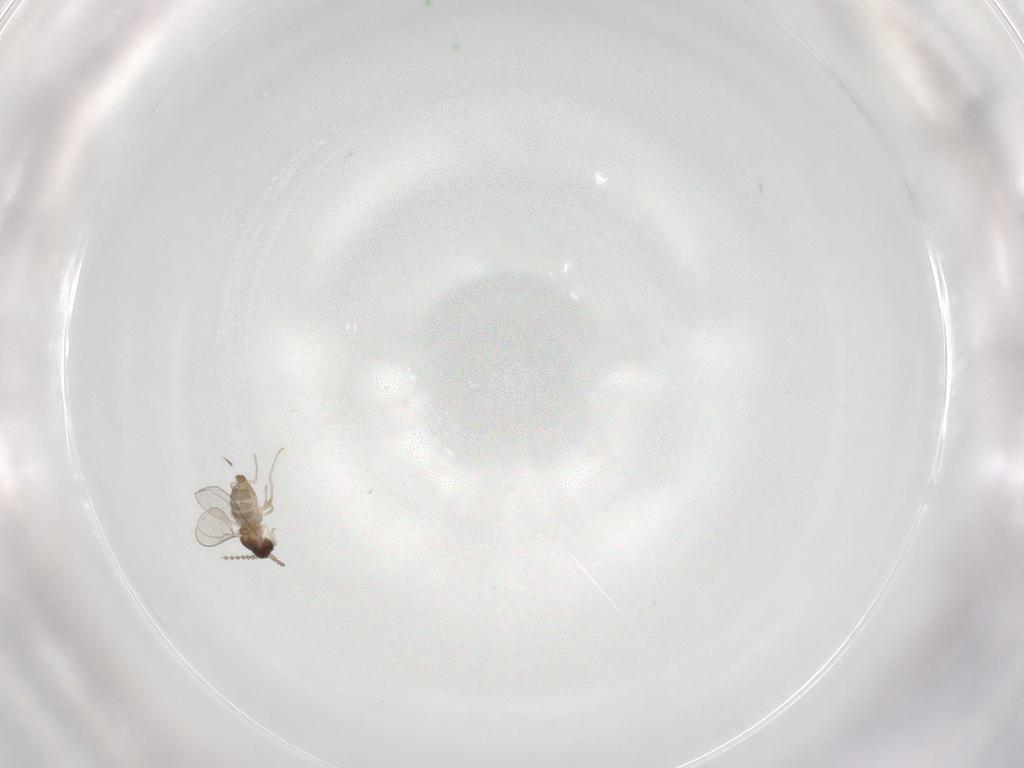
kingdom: Animalia
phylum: Arthropoda
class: Insecta
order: Diptera
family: Cecidomyiidae
